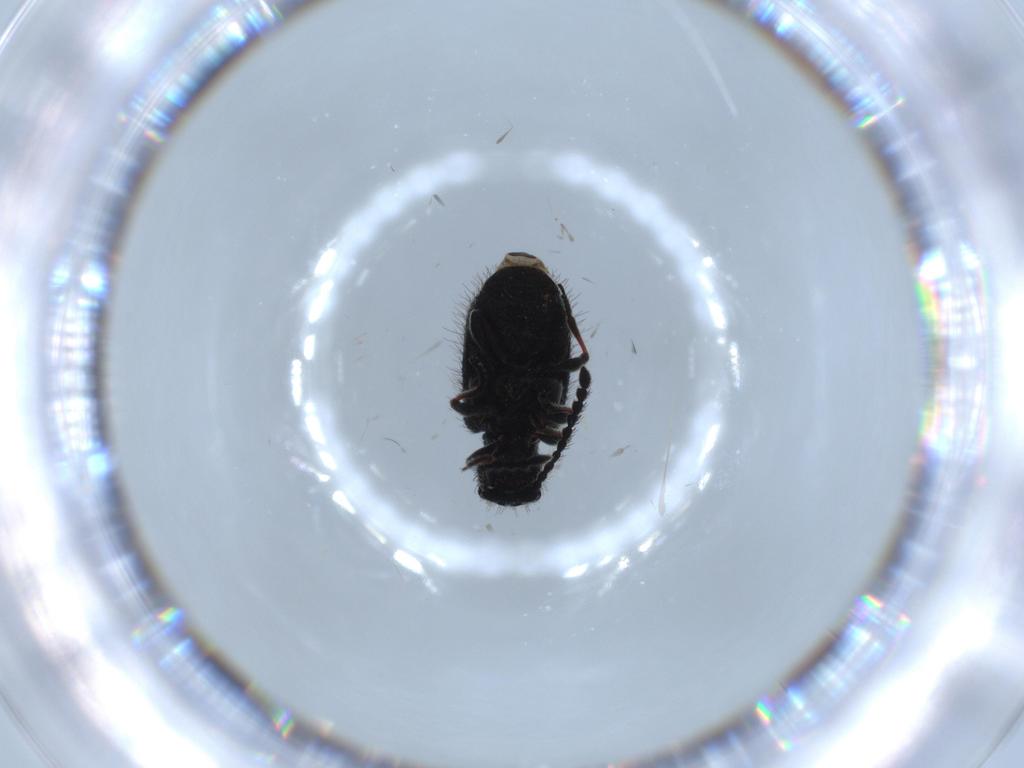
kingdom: Animalia
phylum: Arthropoda
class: Insecta
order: Coleoptera
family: Ptinidae
